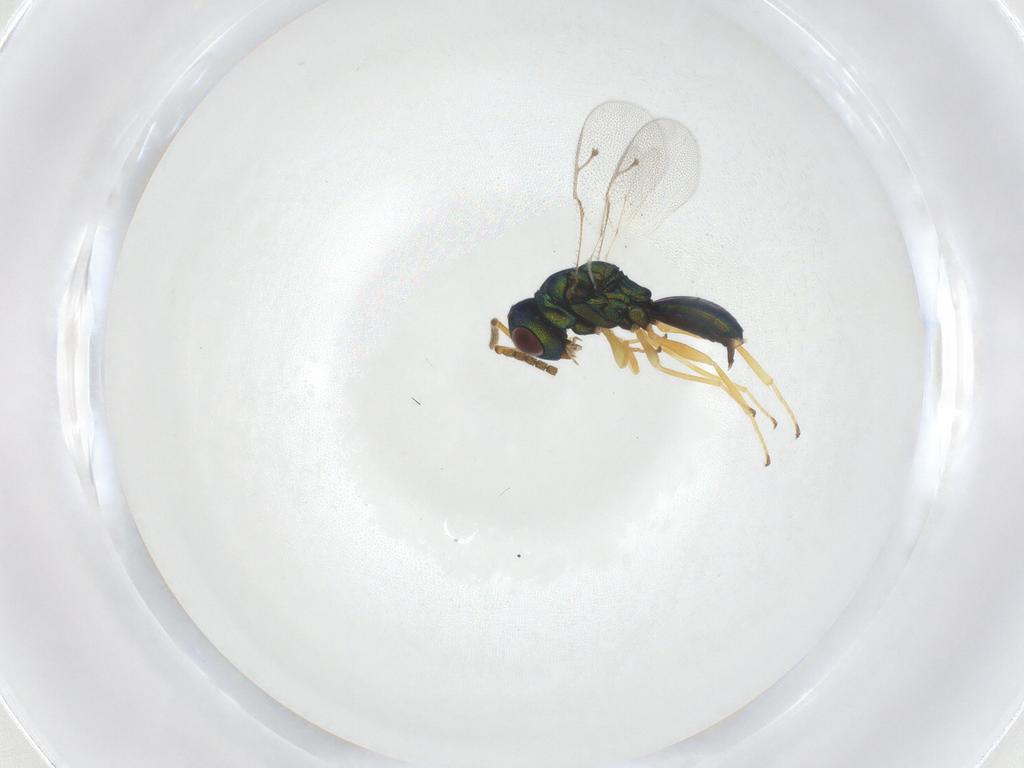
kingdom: Animalia
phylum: Arthropoda
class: Insecta
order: Hymenoptera
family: Pteromalidae
